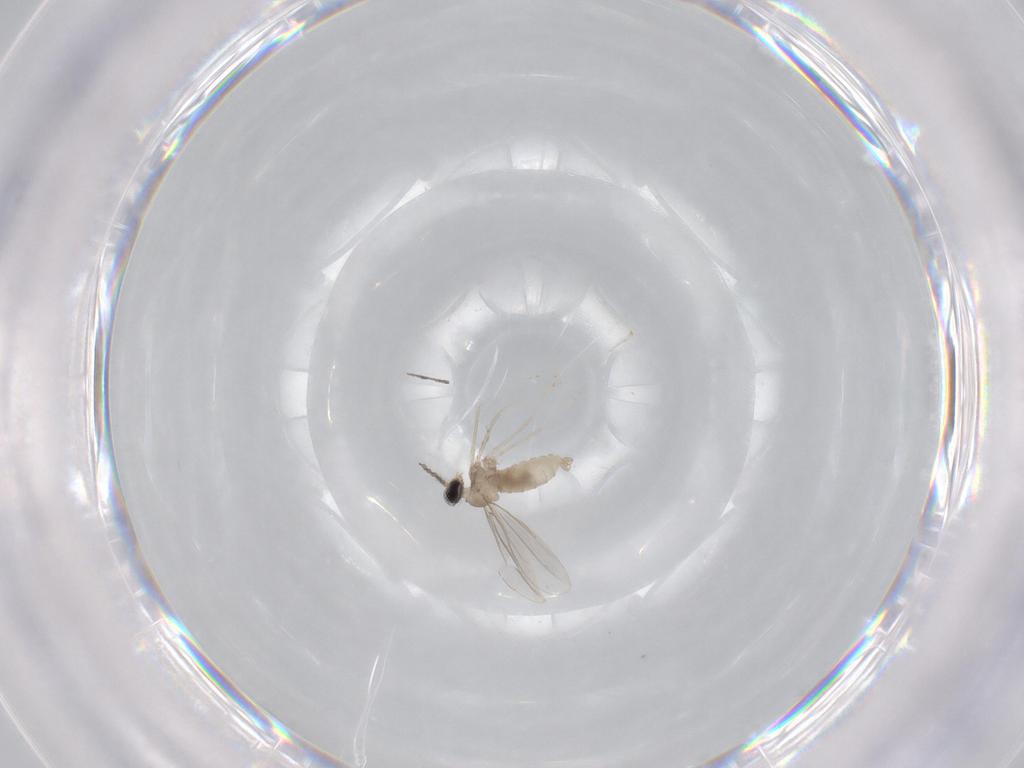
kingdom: Animalia
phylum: Arthropoda
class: Insecta
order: Diptera
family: Cecidomyiidae
